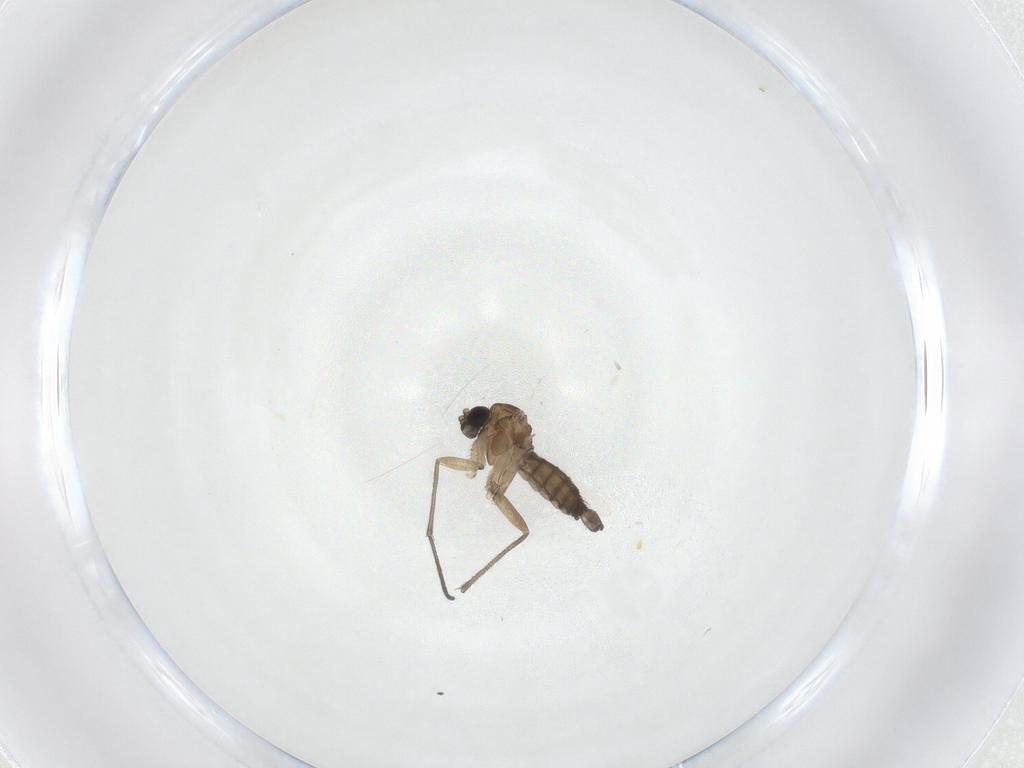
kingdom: Animalia
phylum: Arthropoda
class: Insecta
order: Diptera
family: Sciaridae
